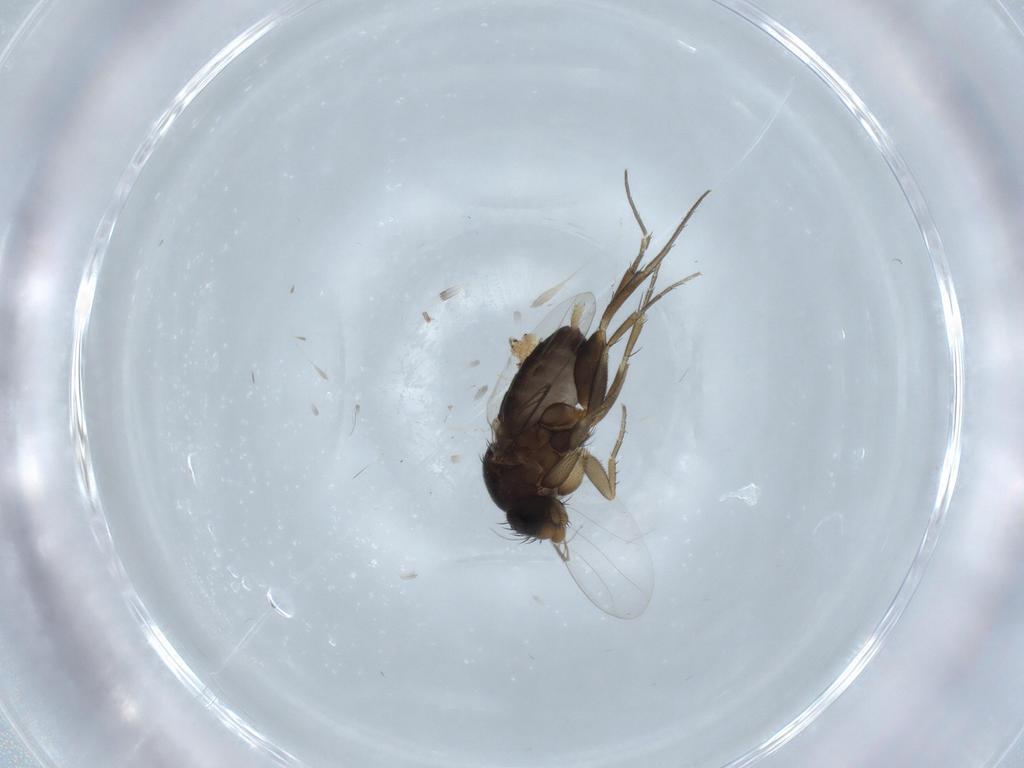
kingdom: Animalia
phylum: Arthropoda
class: Insecta
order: Diptera
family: Phoridae
